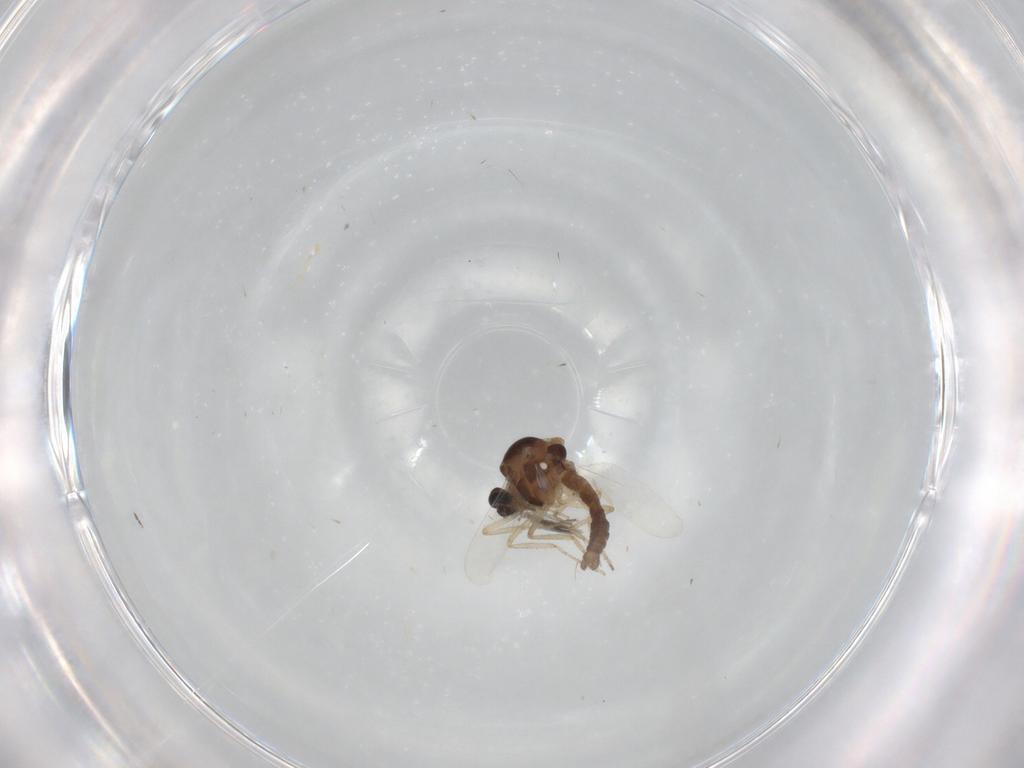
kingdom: Animalia
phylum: Arthropoda
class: Insecta
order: Diptera
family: Ceratopogonidae
